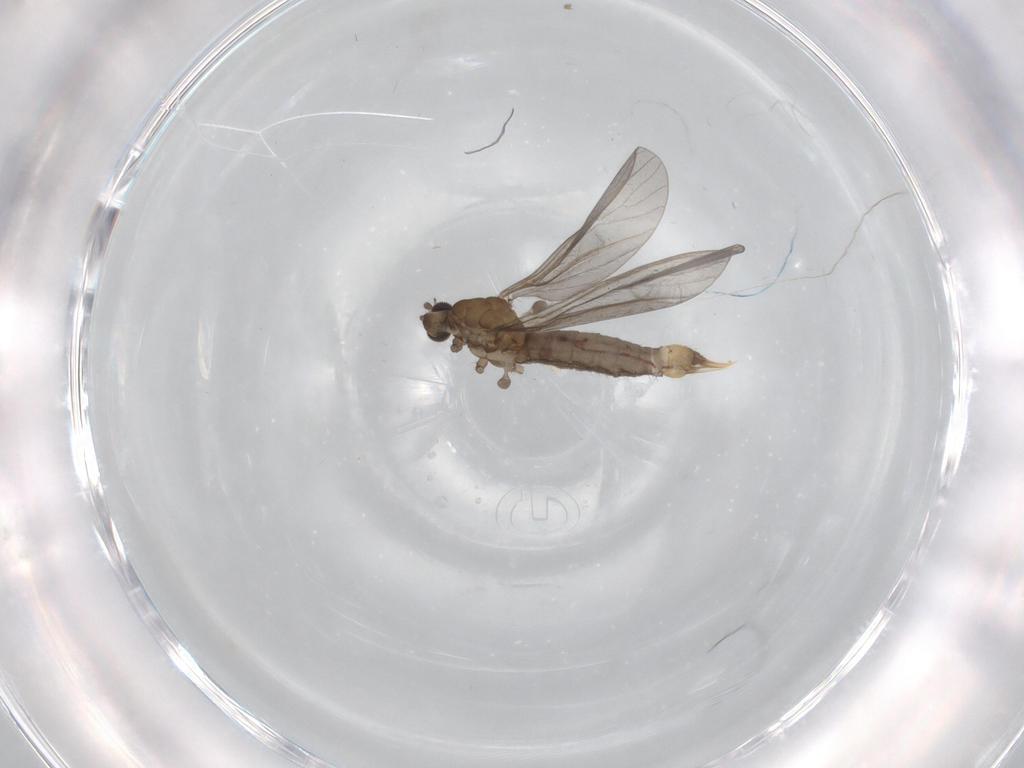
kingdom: Animalia
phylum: Arthropoda
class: Insecta
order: Diptera
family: Limoniidae
